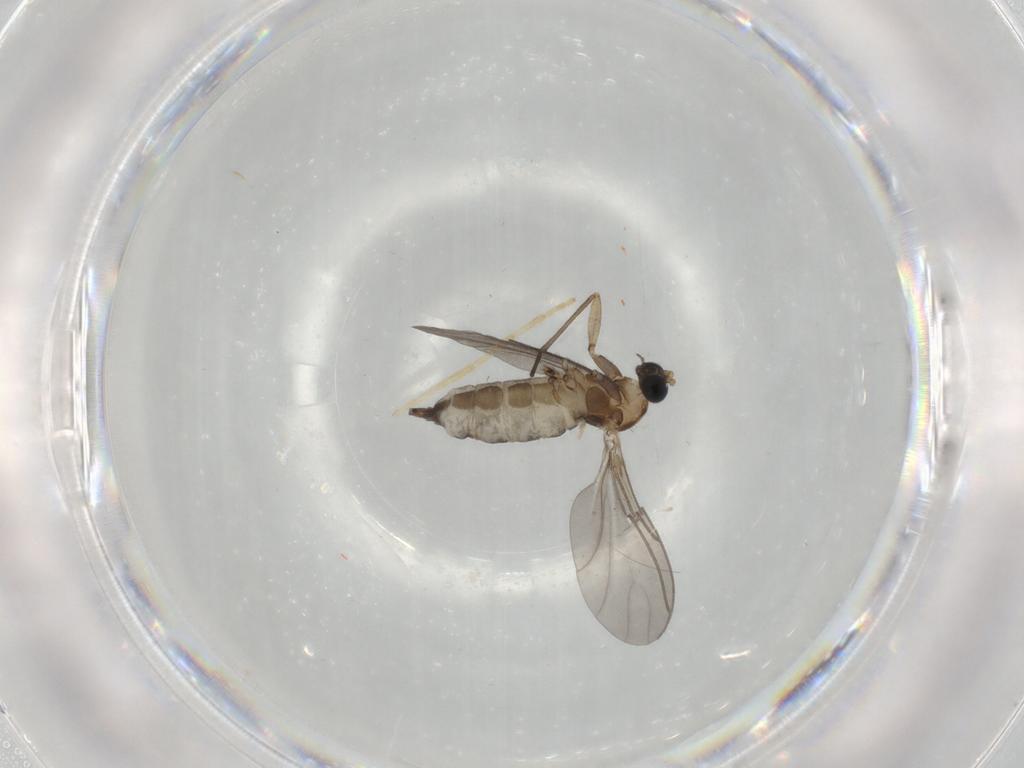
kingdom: Animalia
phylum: Arthropoda
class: Insecta
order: Diptera
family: Sciaridae
